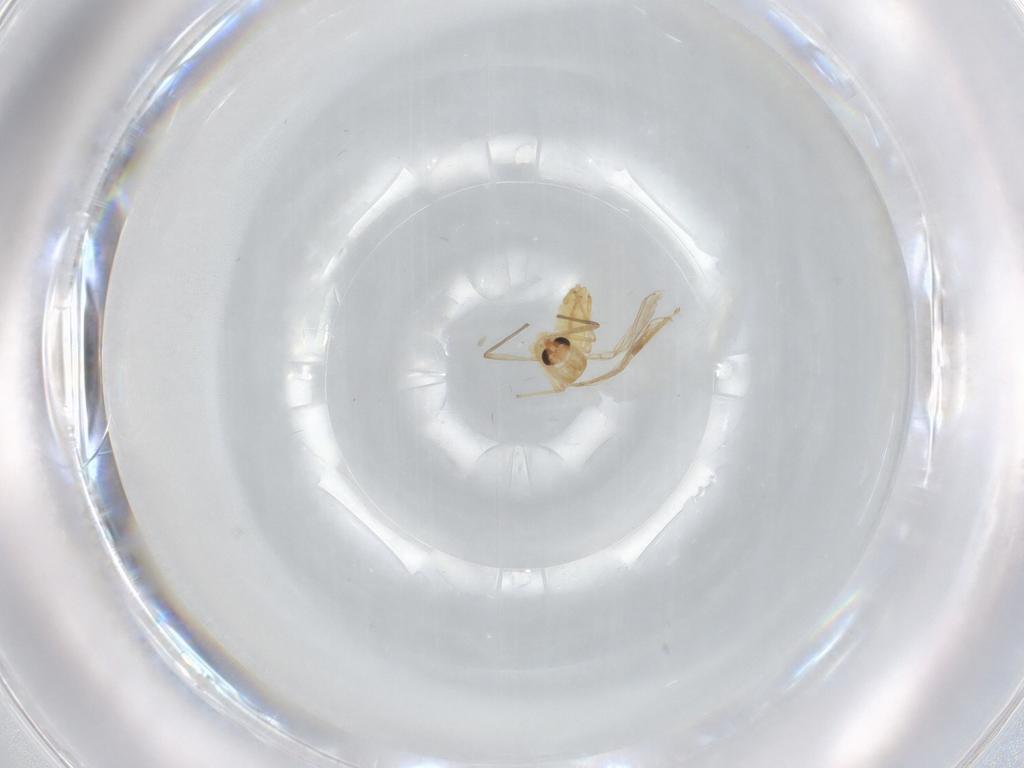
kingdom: Animalia
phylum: Arthropoda
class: Insecta
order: Diptera
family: Chironomidae
